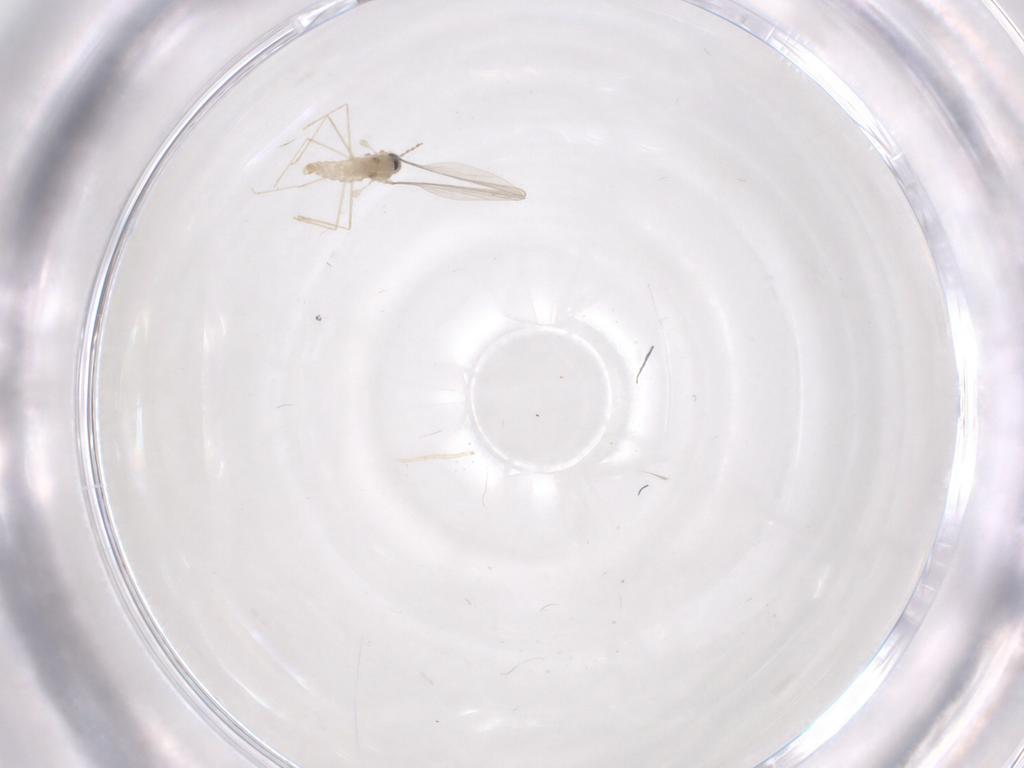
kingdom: Animalia
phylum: Arthropoda
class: Insecta
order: Diptera
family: Cecidomyiidae
